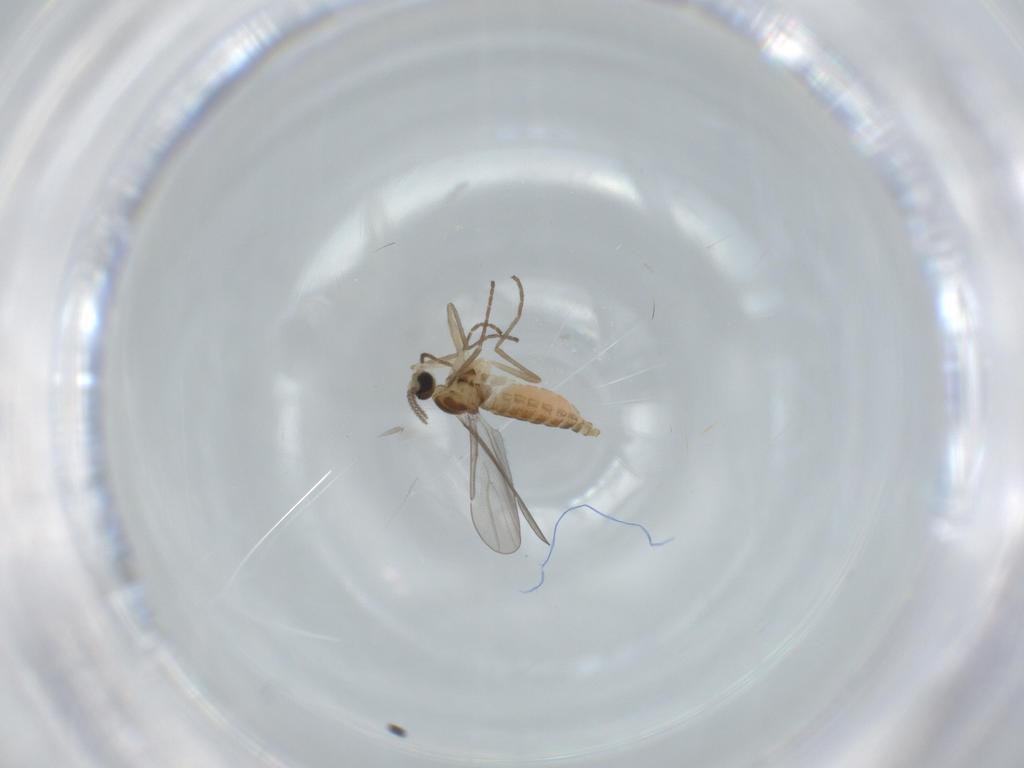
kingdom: Animalia
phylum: Arthropoda
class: Insecta
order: Diptera
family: Cecidomyiidae
